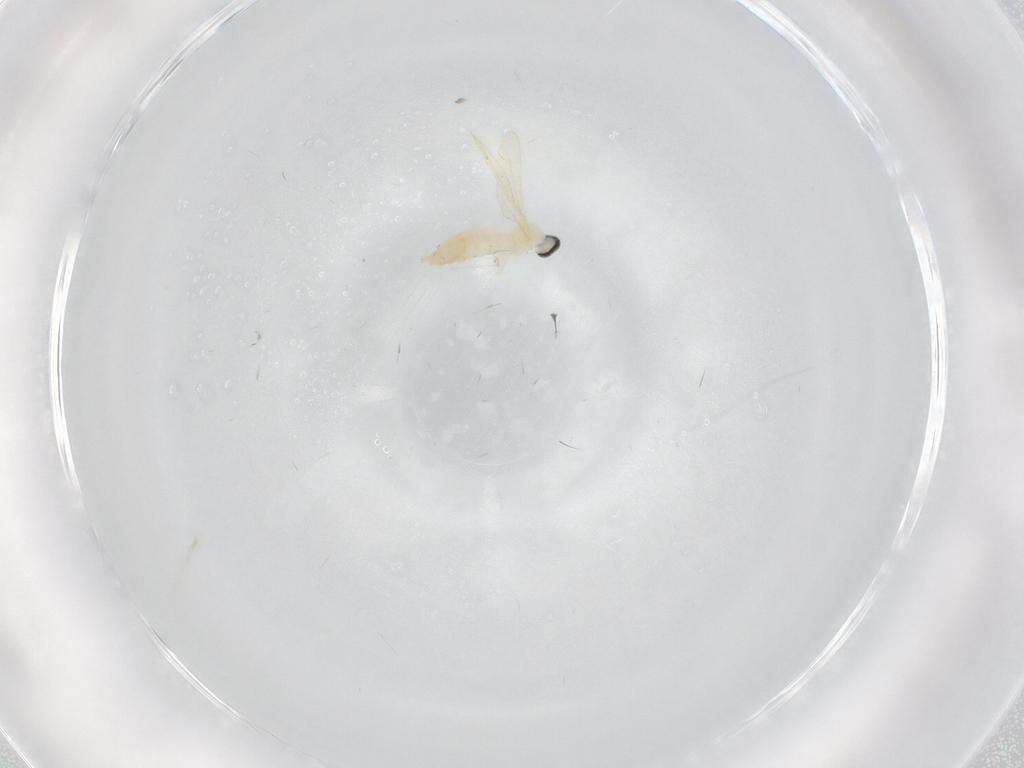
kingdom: Animalia
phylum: Arthropoda
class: Insecta
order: Diptera
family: Cecidomyiidae
